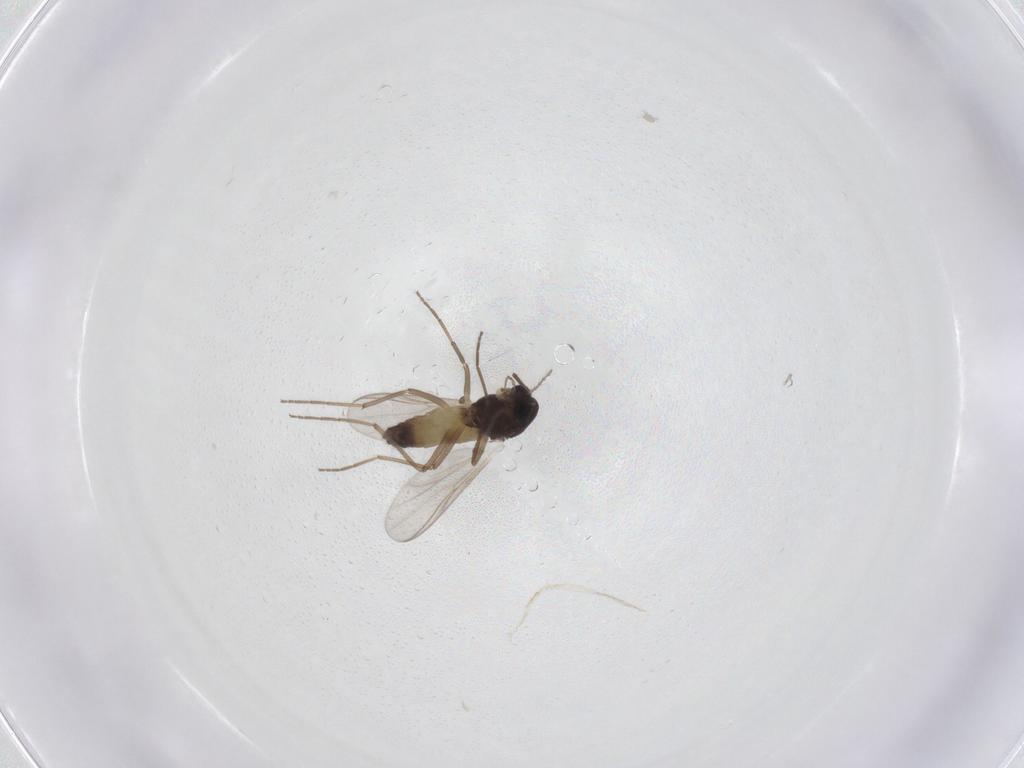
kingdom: Animalia
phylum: Arthropoda
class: Insecta
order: Diptera
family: Chironomidae
